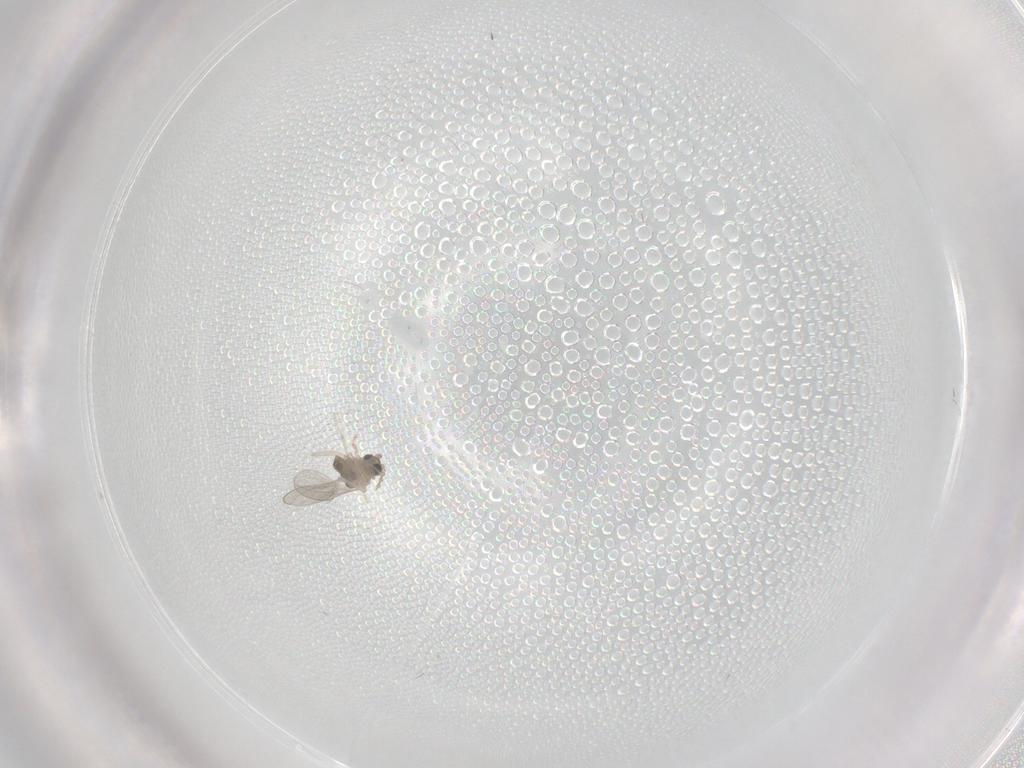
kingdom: Animalia
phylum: Arthropoda
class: Insecta
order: Diptera
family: Cecidomyiidae
